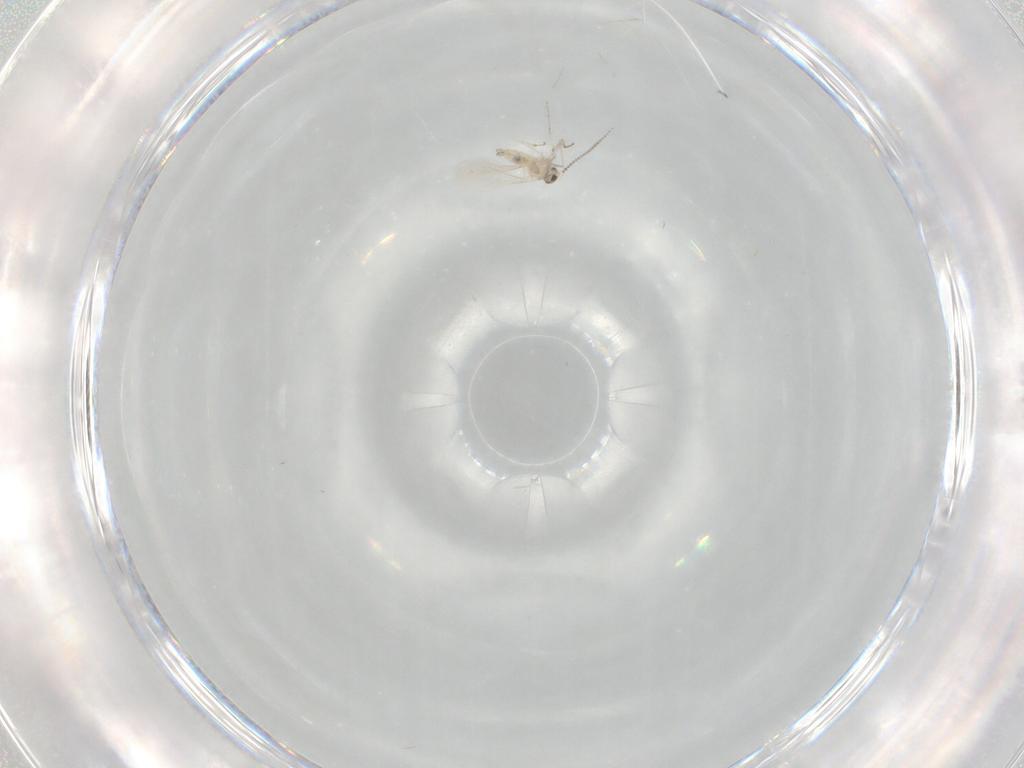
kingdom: Animalia
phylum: Arthropoda
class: Insecta
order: Diptera
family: Cecidomyiidae
